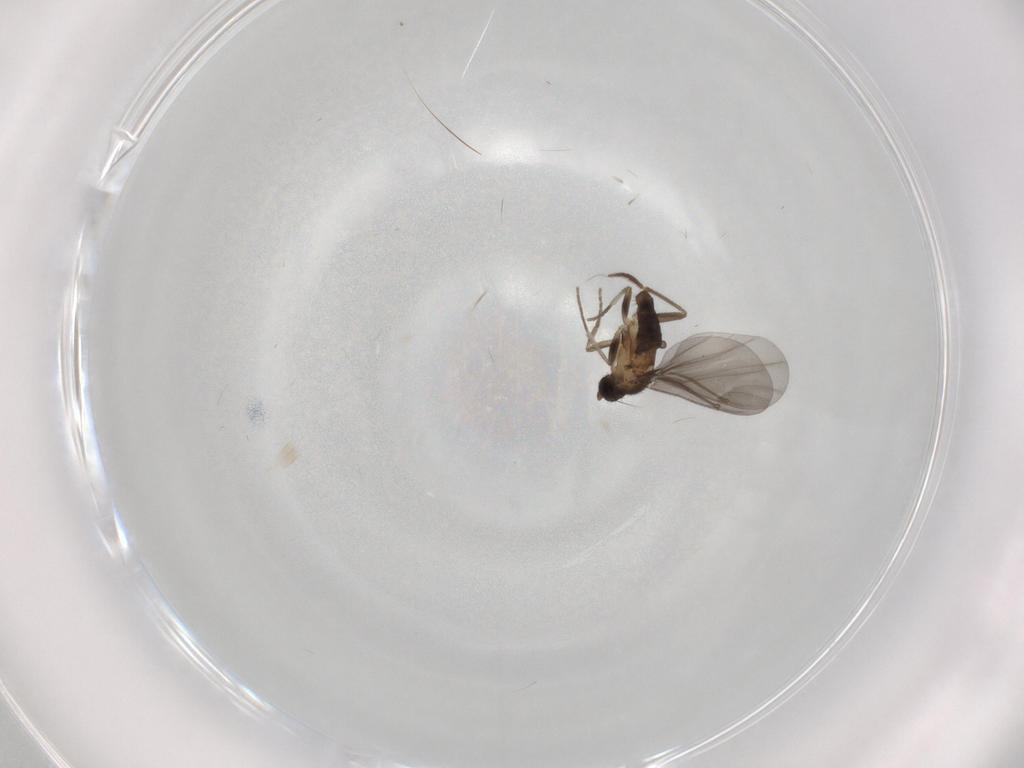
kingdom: Animalia
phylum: Arthropoda
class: Insecta
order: Diptera
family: Phoridae
